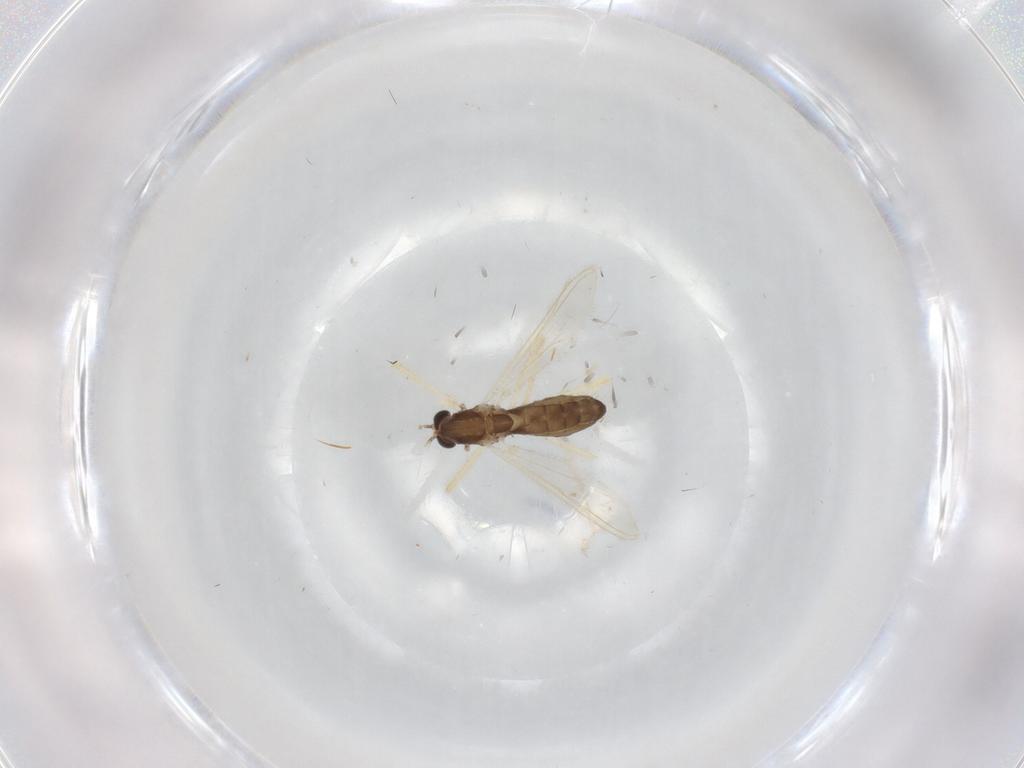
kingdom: Animalia
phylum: Arthropoda
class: Insecta
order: Diptera
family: Chironomidae
